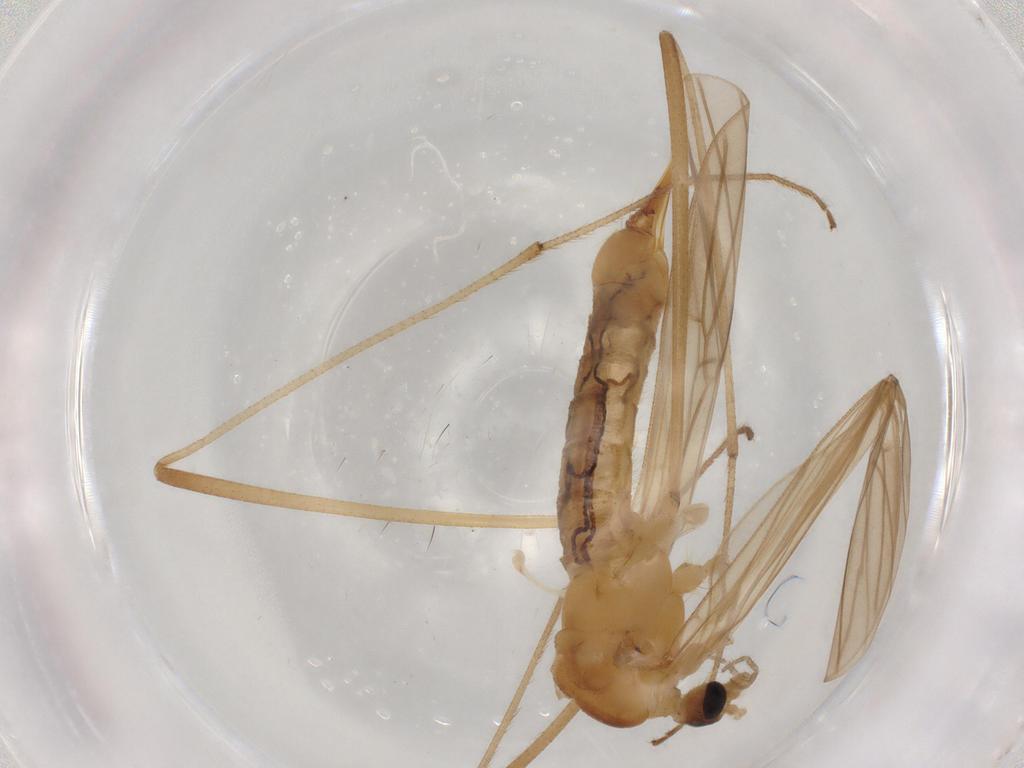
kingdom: Animalia
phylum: Arthropoda
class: Insecta
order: Diptera
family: Limoniidae
